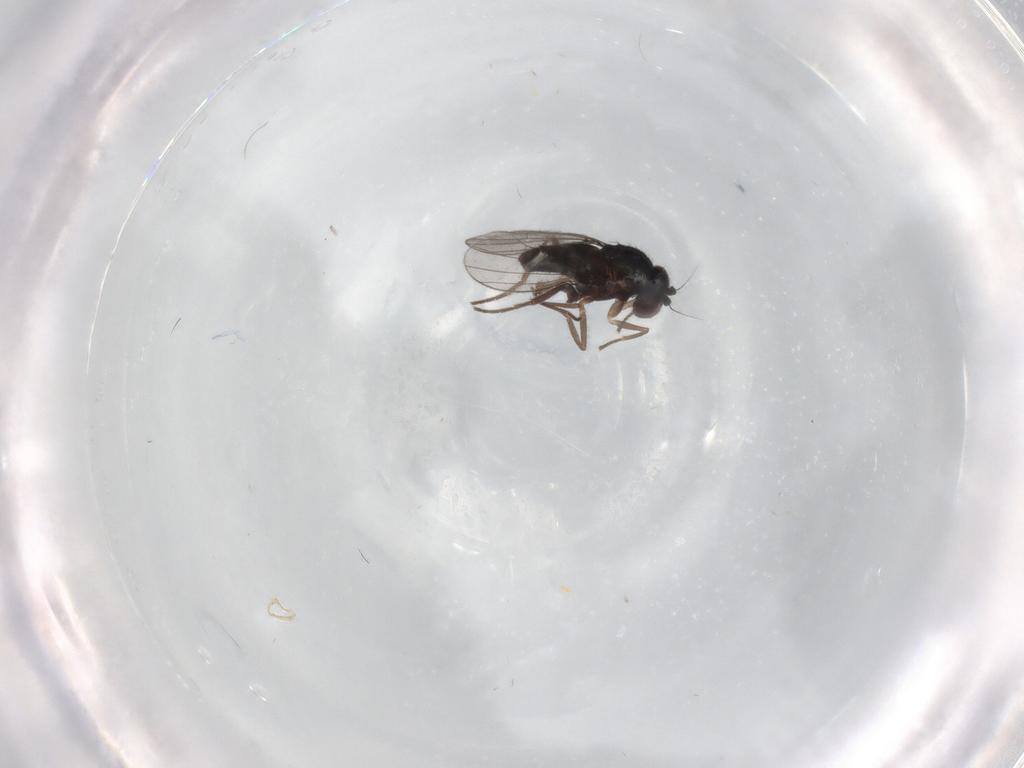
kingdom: Animalia
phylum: Arthropoda
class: Insecta
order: Diptera
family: Dolichopodidae
